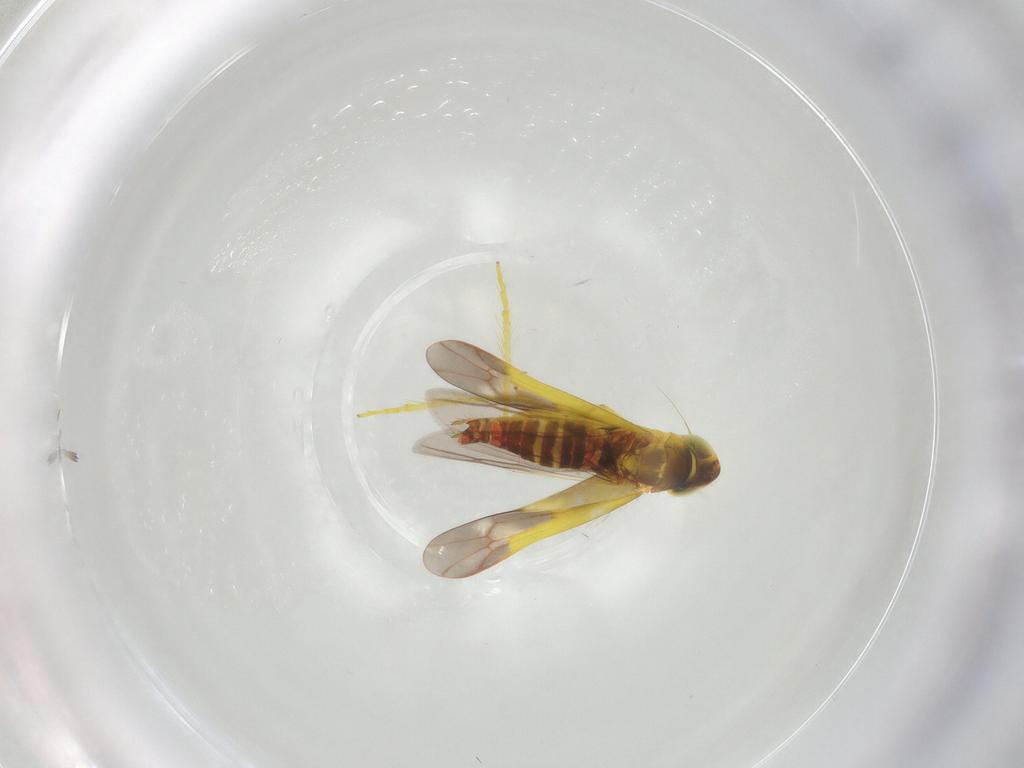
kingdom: Animalia
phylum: Arthropoda
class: Insecta
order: Hemiptera
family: Cicadellidae
